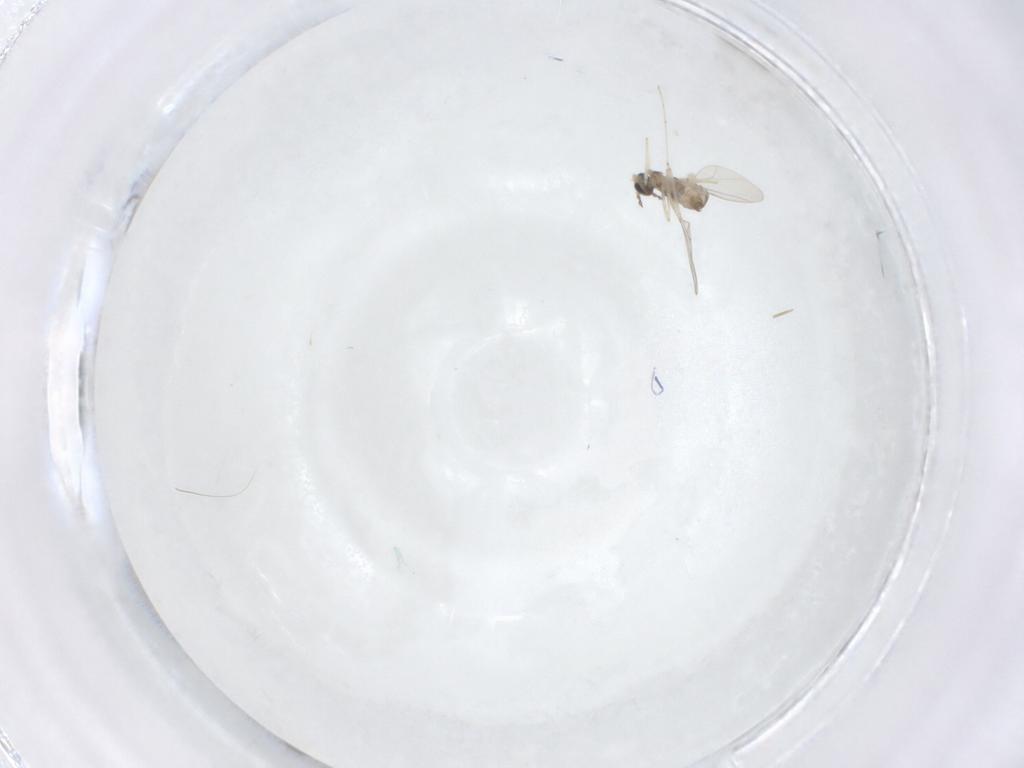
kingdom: Animalia
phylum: Arthropoda
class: Insecta
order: Diptera
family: Cecidomyiidae
